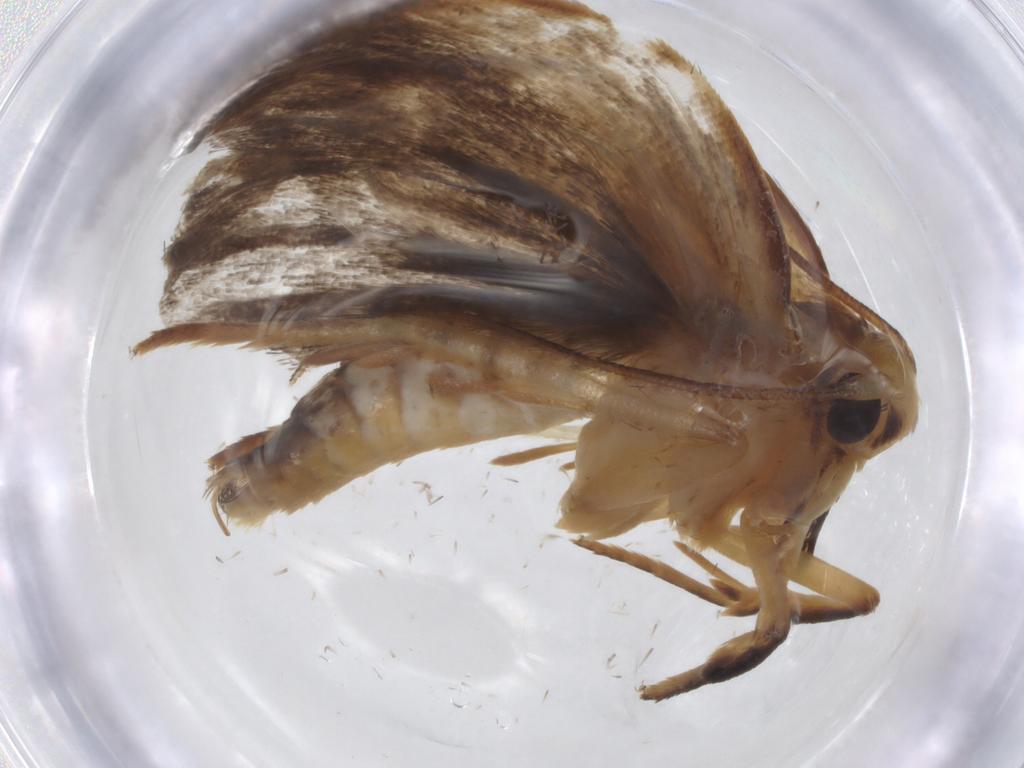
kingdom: Animalia
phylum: Arthropoda
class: Insecta
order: Lepidoptera
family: Depressariidae
